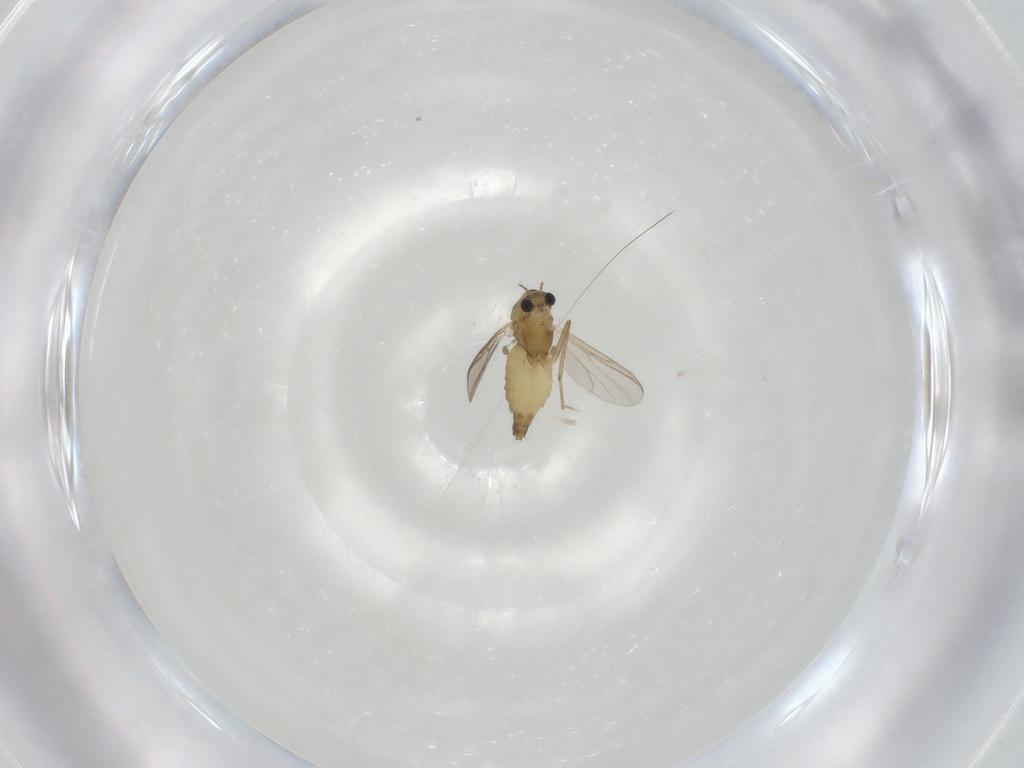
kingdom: Animalia
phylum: Arthropoda
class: Insecta
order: Diptera
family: Chironomidae
